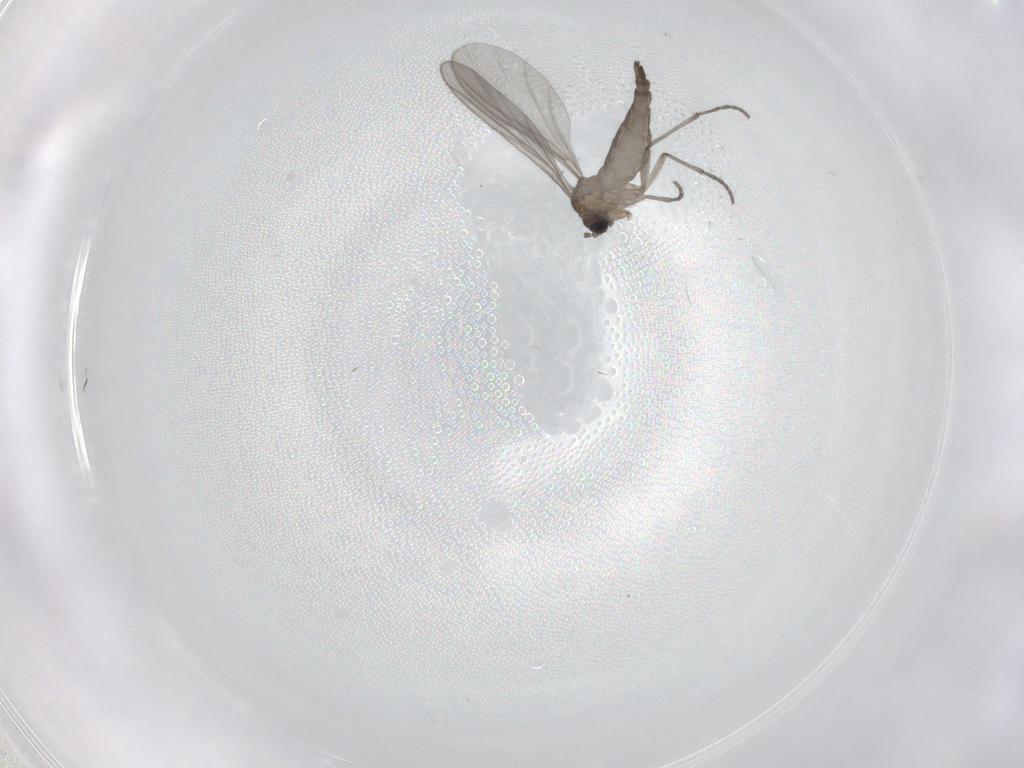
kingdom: Animalia
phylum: Arthropoda
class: Insecta
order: Diptera
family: Sciaridae
